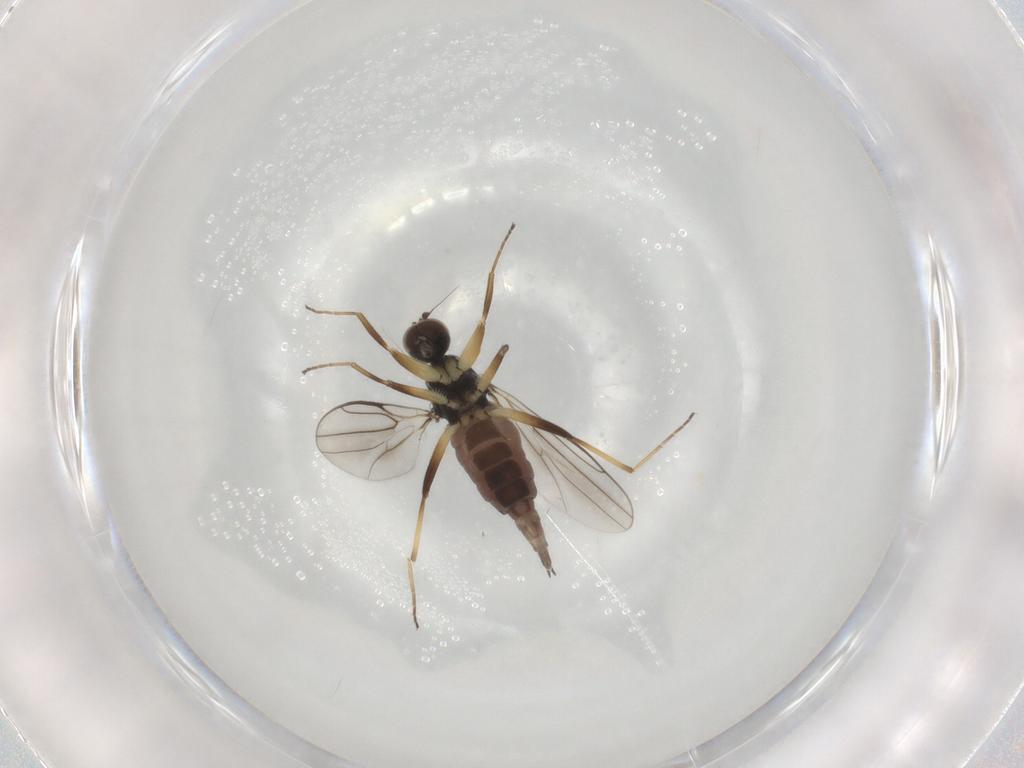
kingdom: Animalia
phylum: Arthropoda
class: Insecta
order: Diptera
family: Hybotidae
